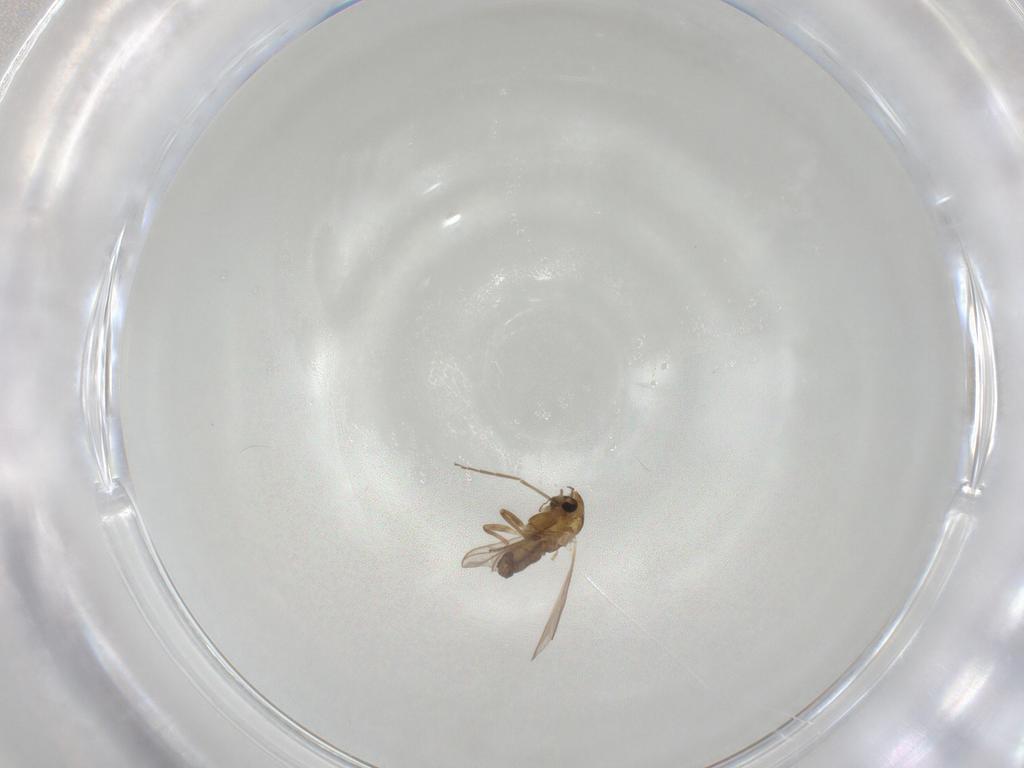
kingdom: Animalia
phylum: Arthropoda
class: Insecta
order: Diptera
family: Chironomidae
